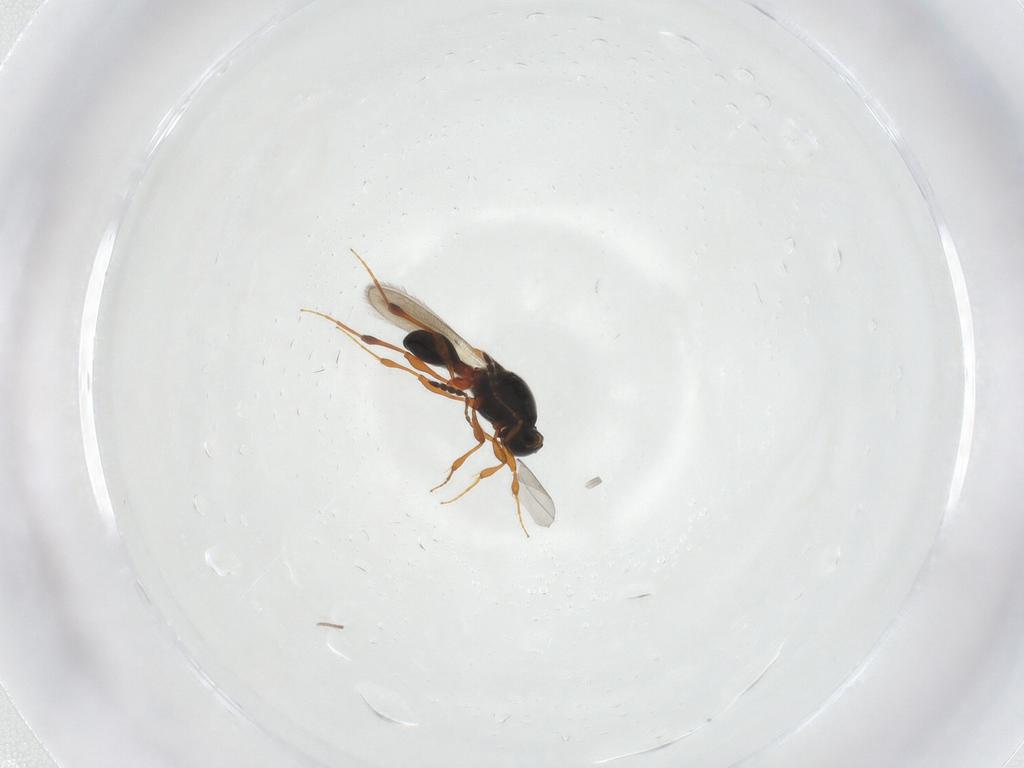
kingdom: Animalia
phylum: Arthropoda
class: Insecta
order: Hymenoptera
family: Platygastridae
